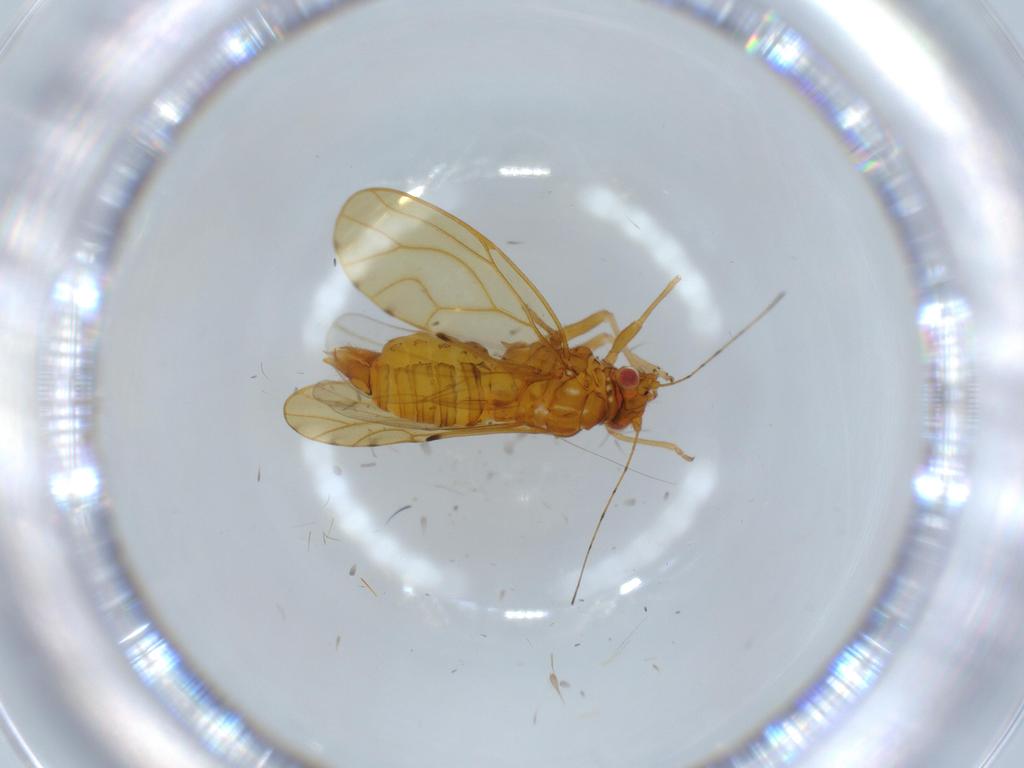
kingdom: Animalia
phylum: Arthropoda
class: Insecta
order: Hemiptera
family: Psylloidea_incertae_sedis
